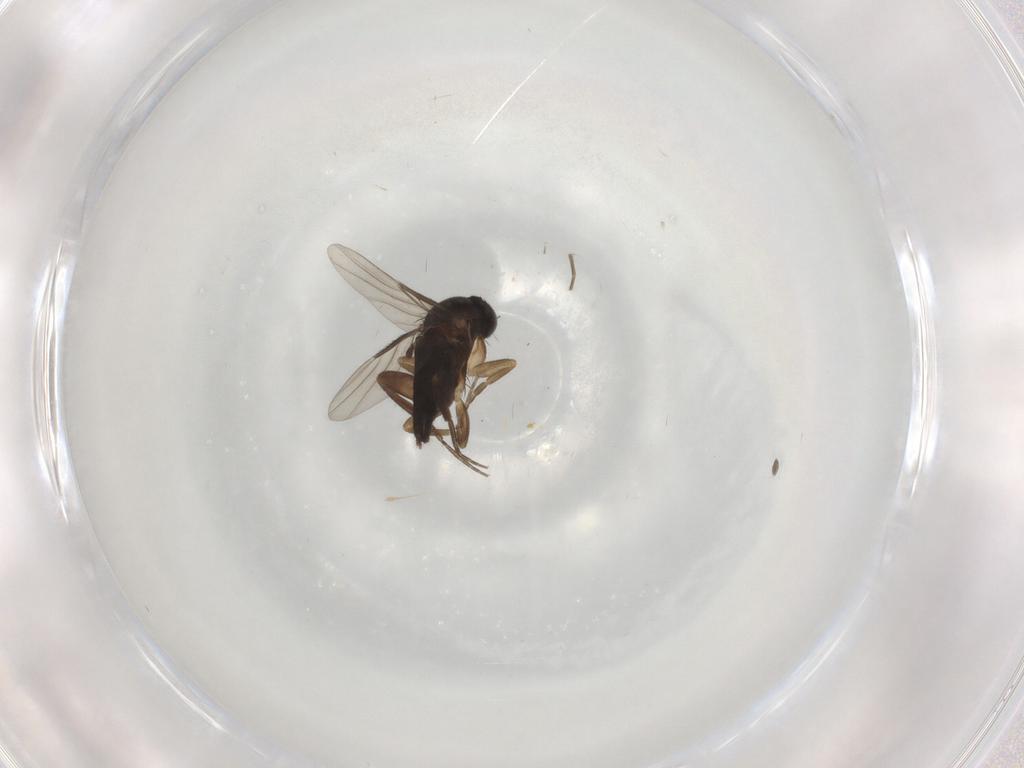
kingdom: Animalia
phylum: Arthropoda
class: Insecta
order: Diptera
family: Phoridae
